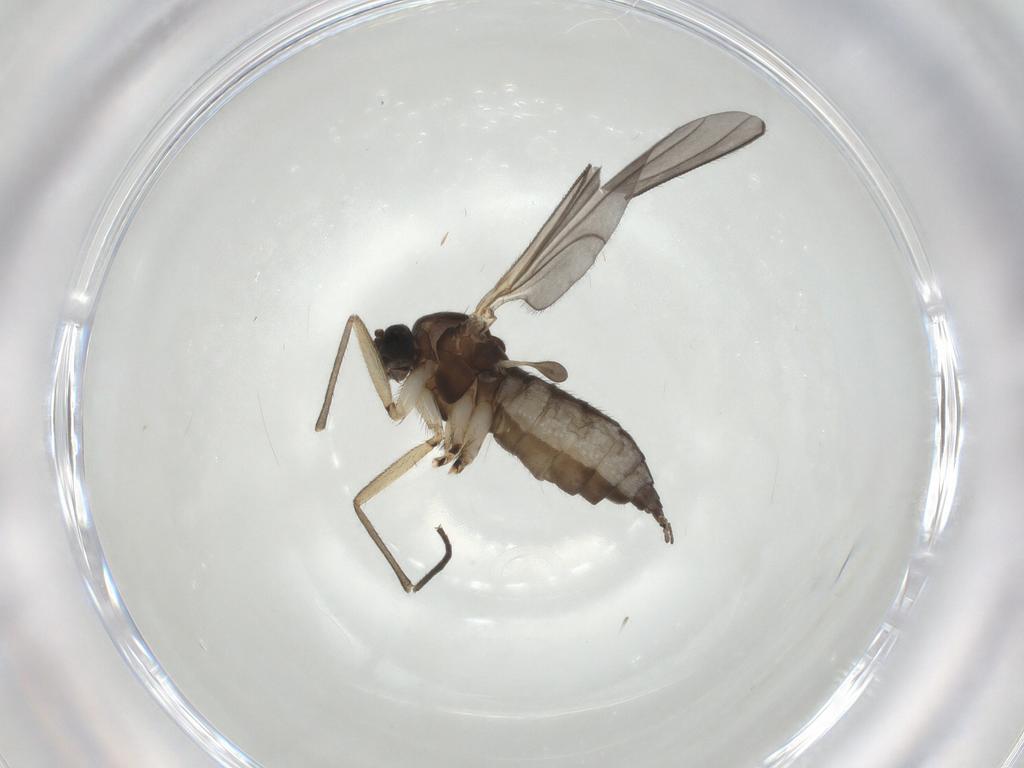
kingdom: Animalia
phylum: Arthropoda
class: Insecta
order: Diptera
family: Sciaridae
